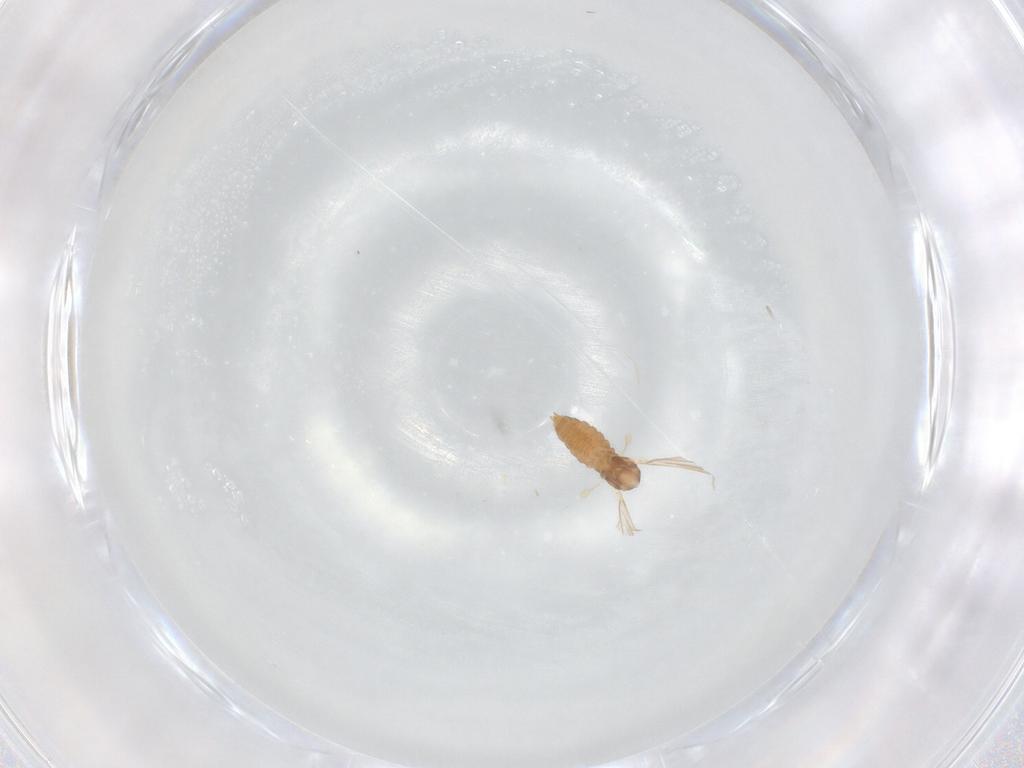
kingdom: Animalia
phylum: Arthropoda
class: Insecta
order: Diptera
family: Cecidomyiidae
